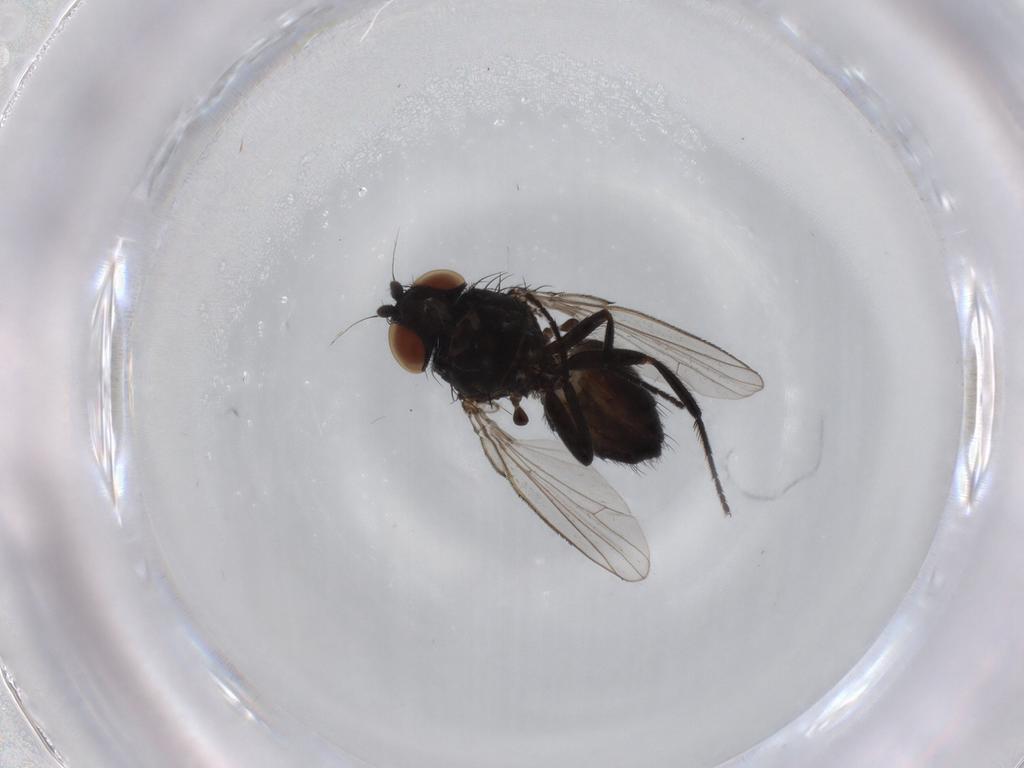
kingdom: Animalia
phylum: Arthropoda
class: Insecta
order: Diptera
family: Milichiidae
